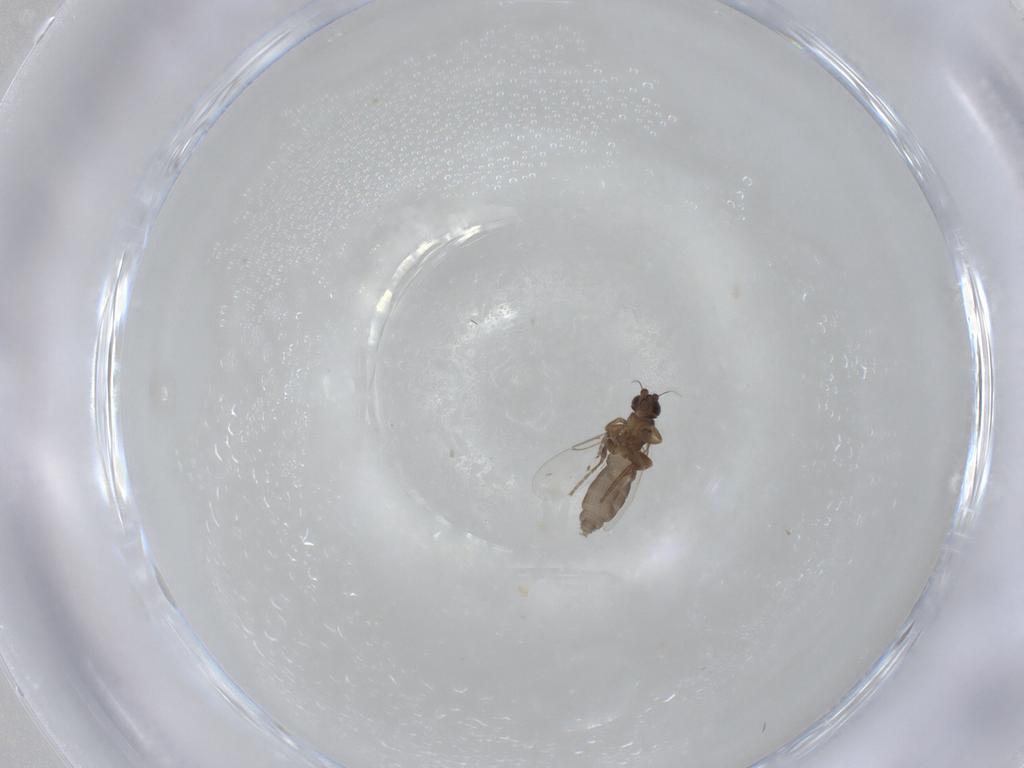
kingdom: Animalia
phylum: Arthropoda
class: Insecta
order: Diptera
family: Phoridae
